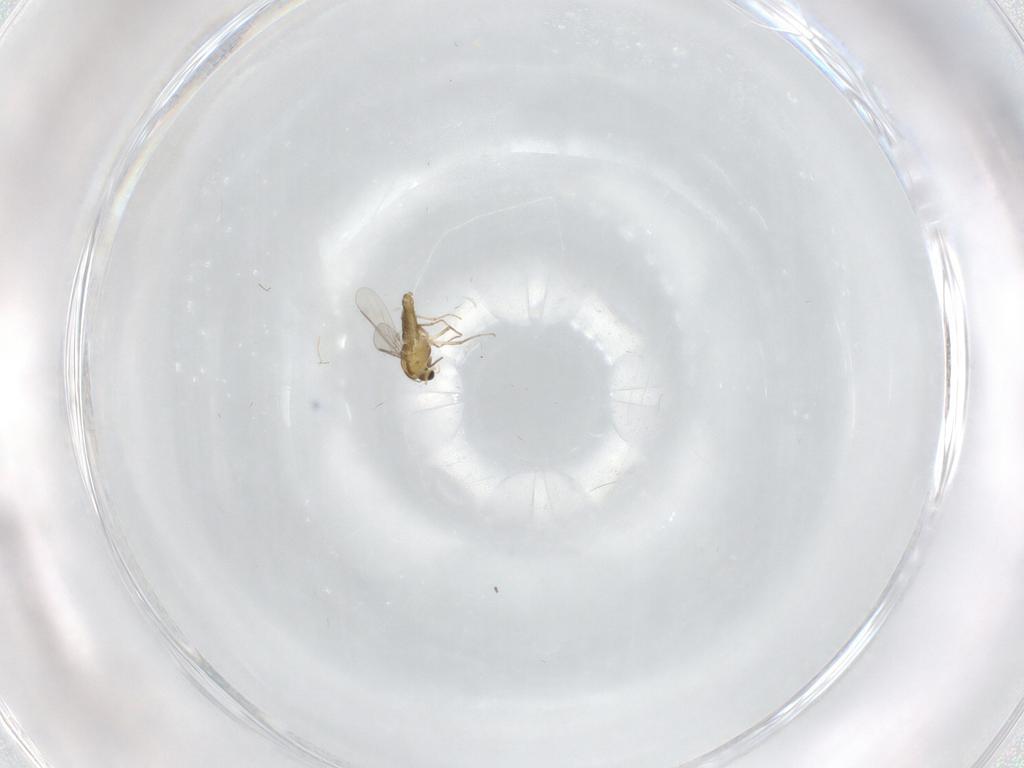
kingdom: Animalia
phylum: Arthropoda
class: Insecta
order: Diptera
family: Chironomidae
